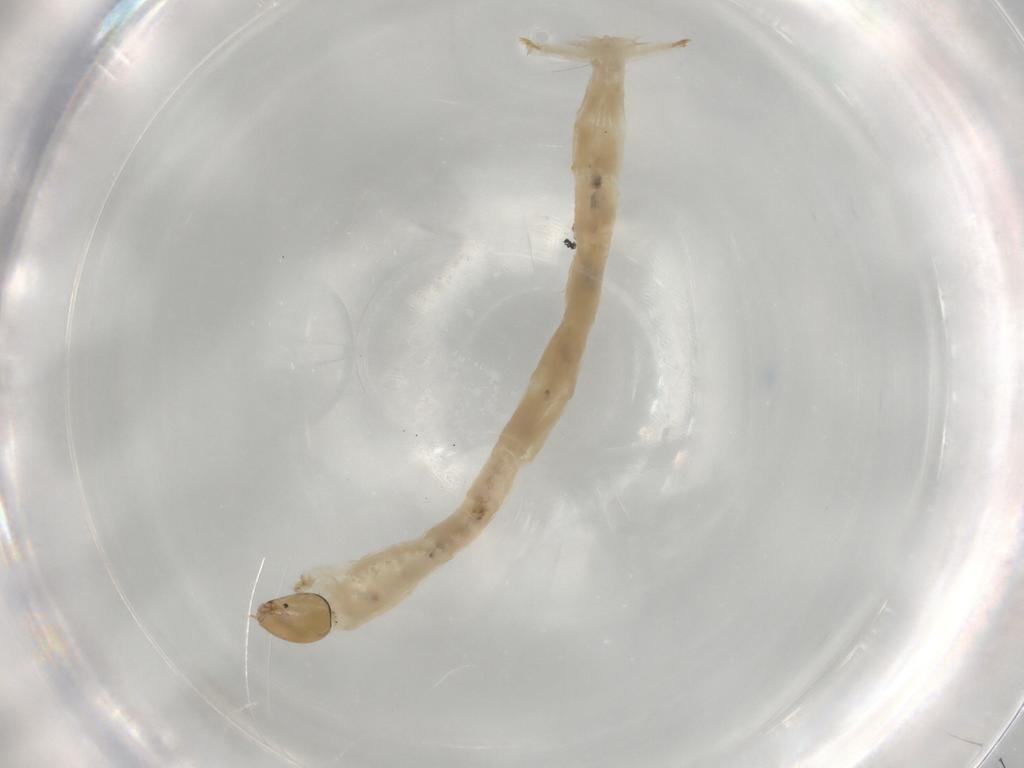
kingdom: Animalia
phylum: Arthropoda
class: Insecta
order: Diptera
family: Chironomidae
